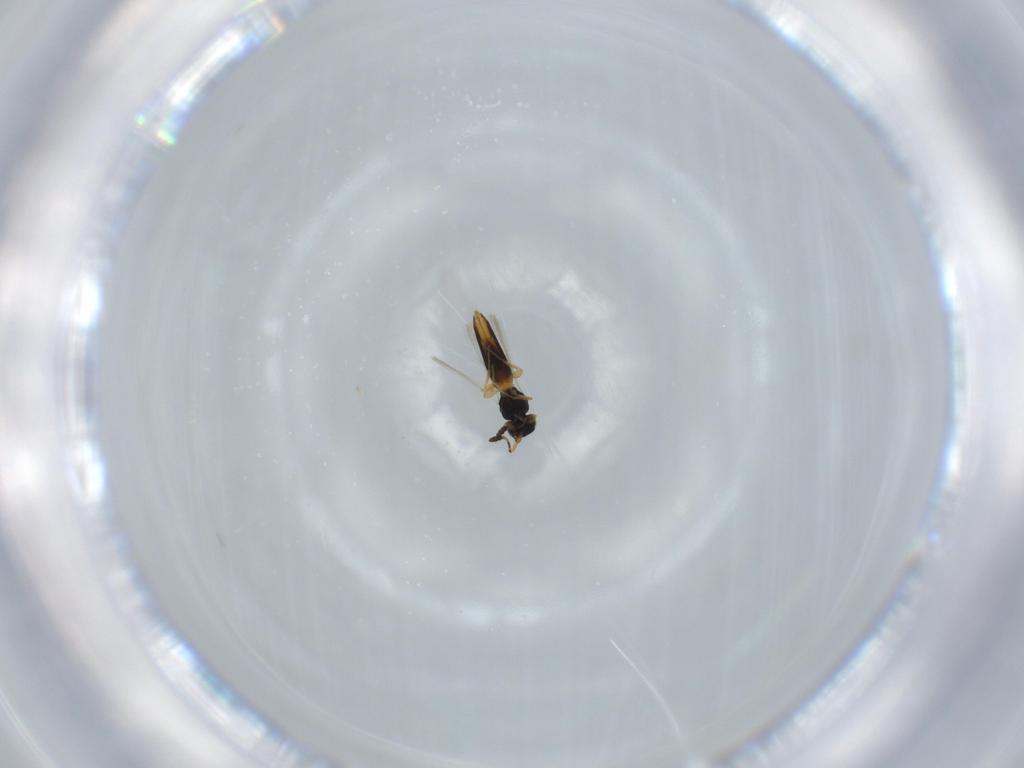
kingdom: Animalia
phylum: Arthropoda
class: Insecta
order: Hymenoptera
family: Scelionidae
